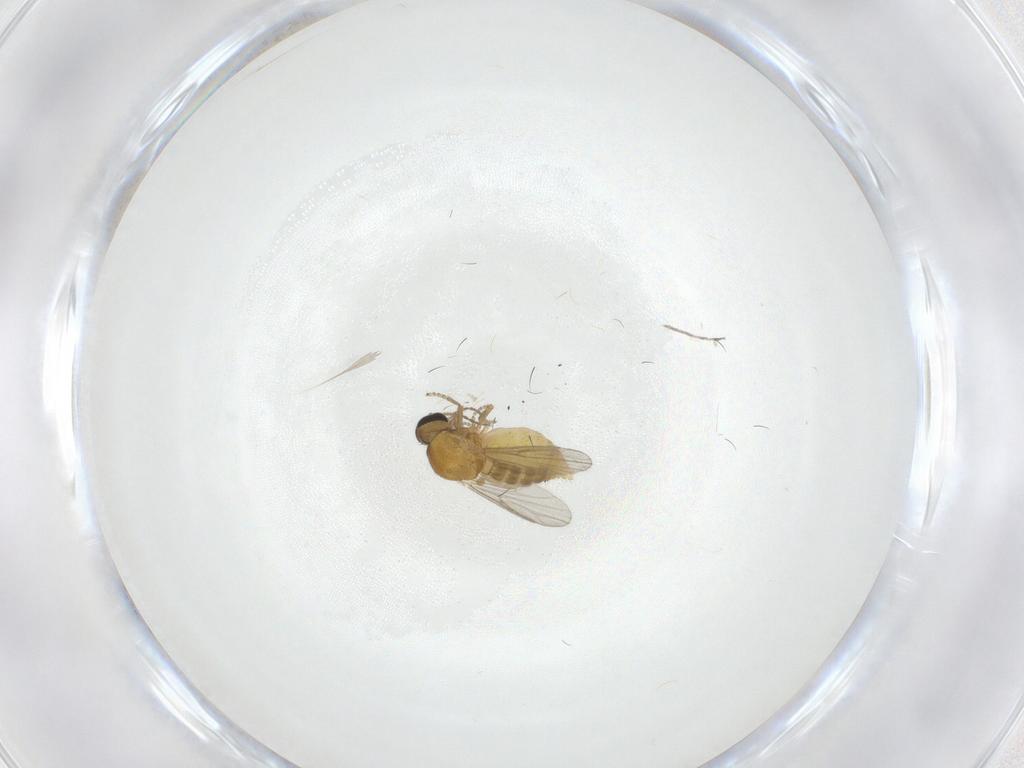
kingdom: Animalia
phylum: Arthropoda
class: Insecta
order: Diptera
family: Ceratopogonidae
